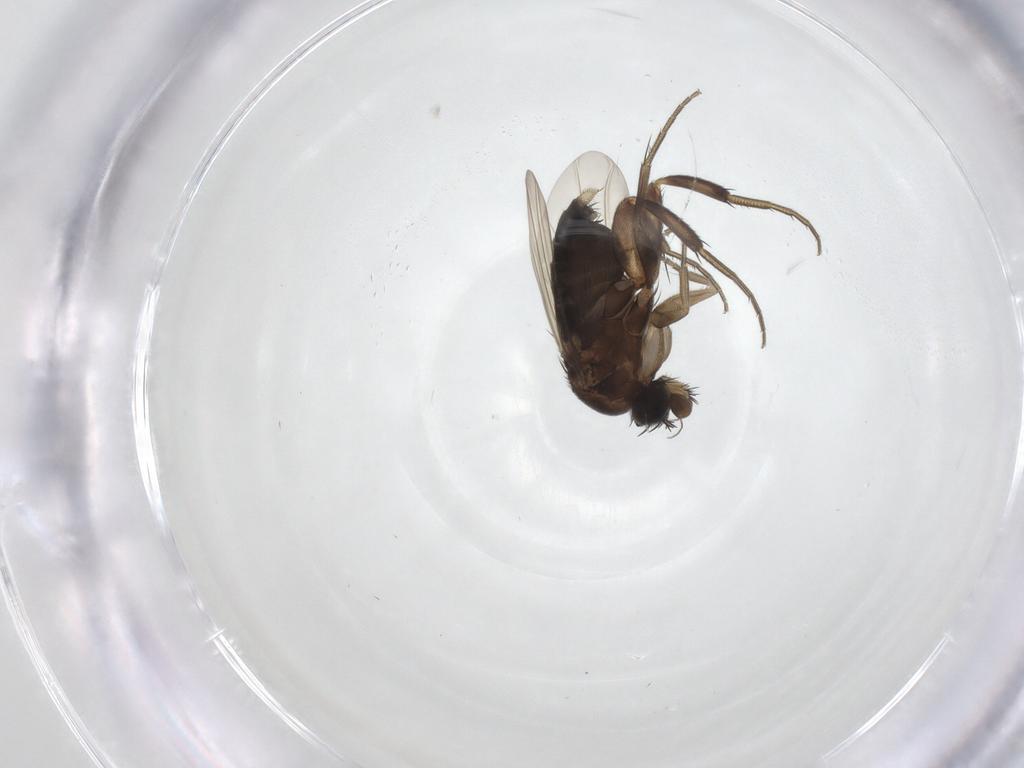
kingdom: Animalia
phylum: Arthropoda
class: Insecta
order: Diptera
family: Phoridae
